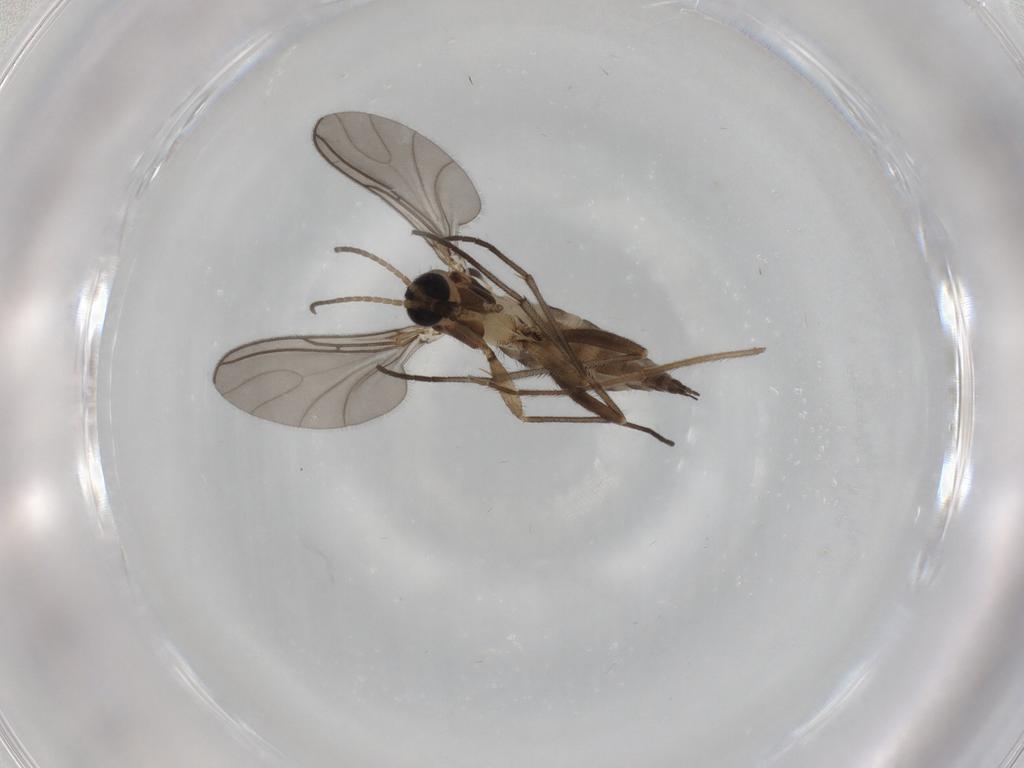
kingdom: Animalia
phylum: Arthropoda
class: Insecta
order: Diptera
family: Sciaridae
